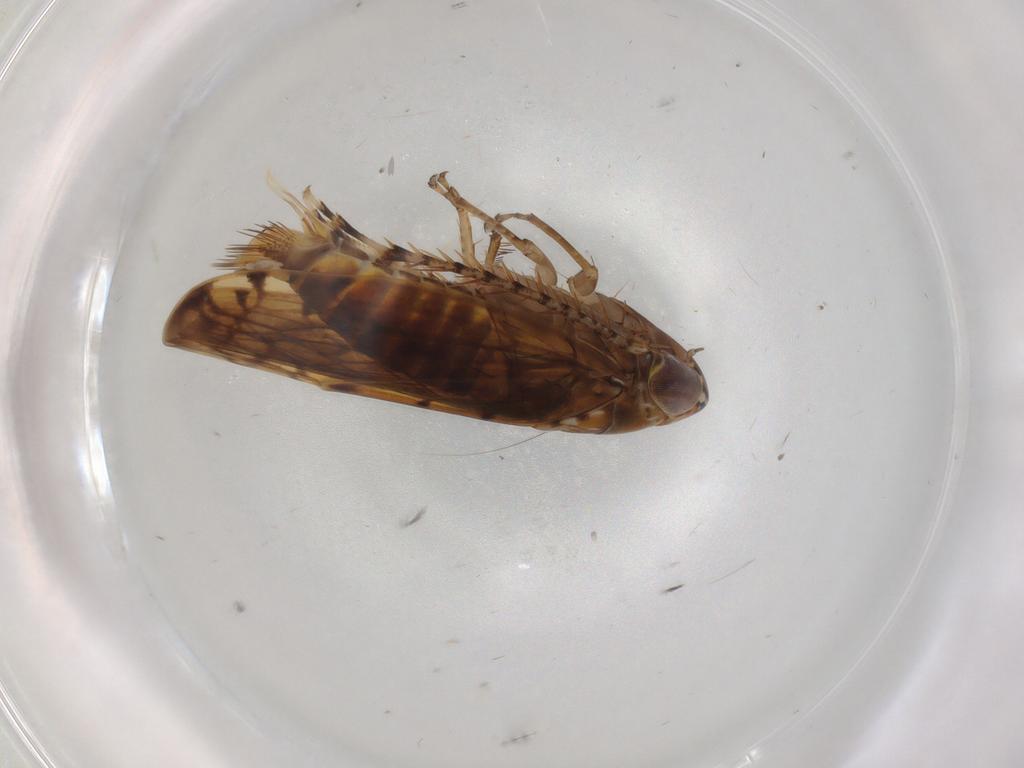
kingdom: Animalia
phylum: Arthropoda
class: Insecta
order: Hemiptera
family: Cicadellidae
